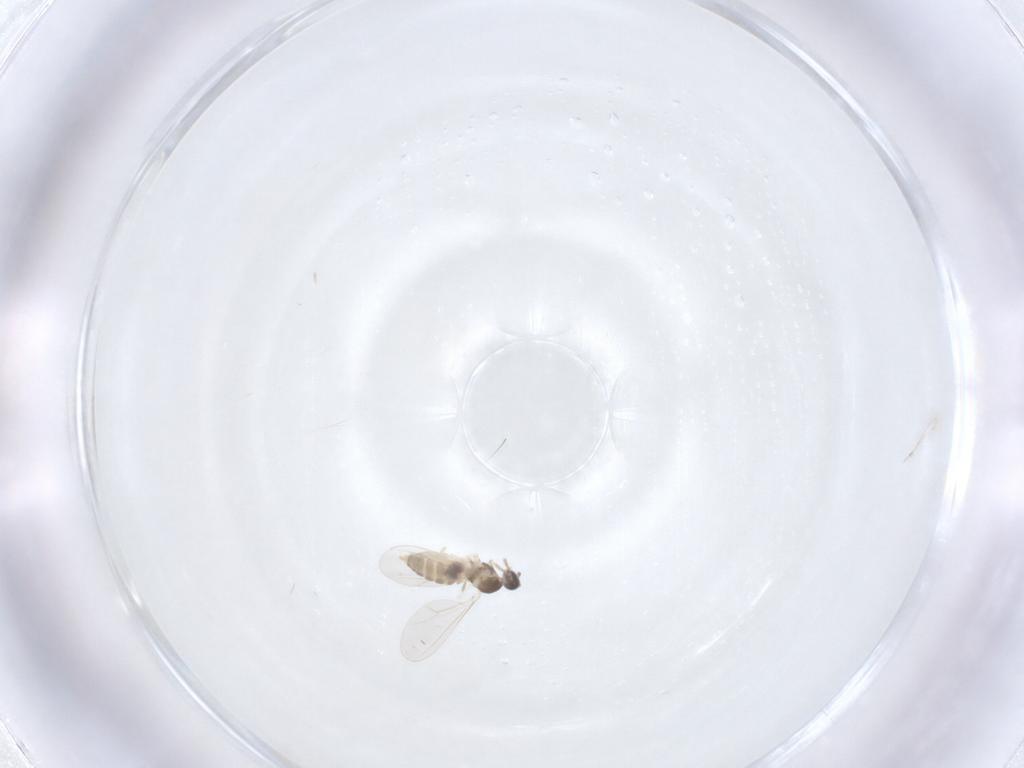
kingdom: Animalia
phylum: Arthropoda
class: Insecta
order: Diptera
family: Cecidomyiidae
